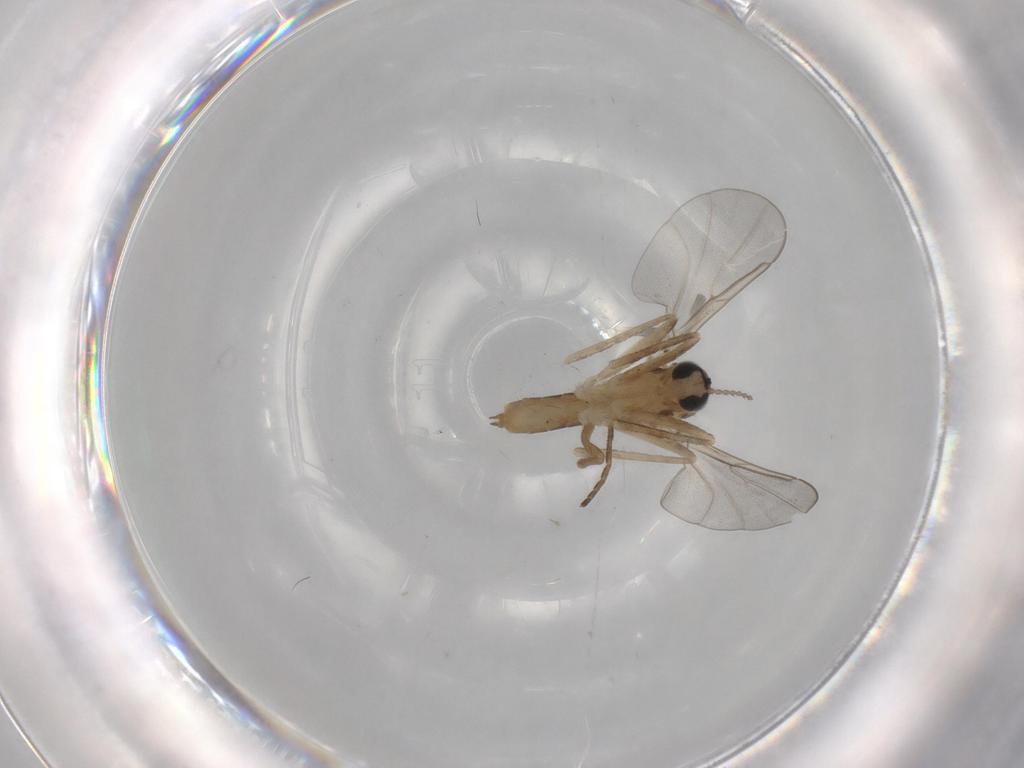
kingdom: Animalia
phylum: Arthropoda
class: Insecta
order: Diptera
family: Cecidomyiidae
